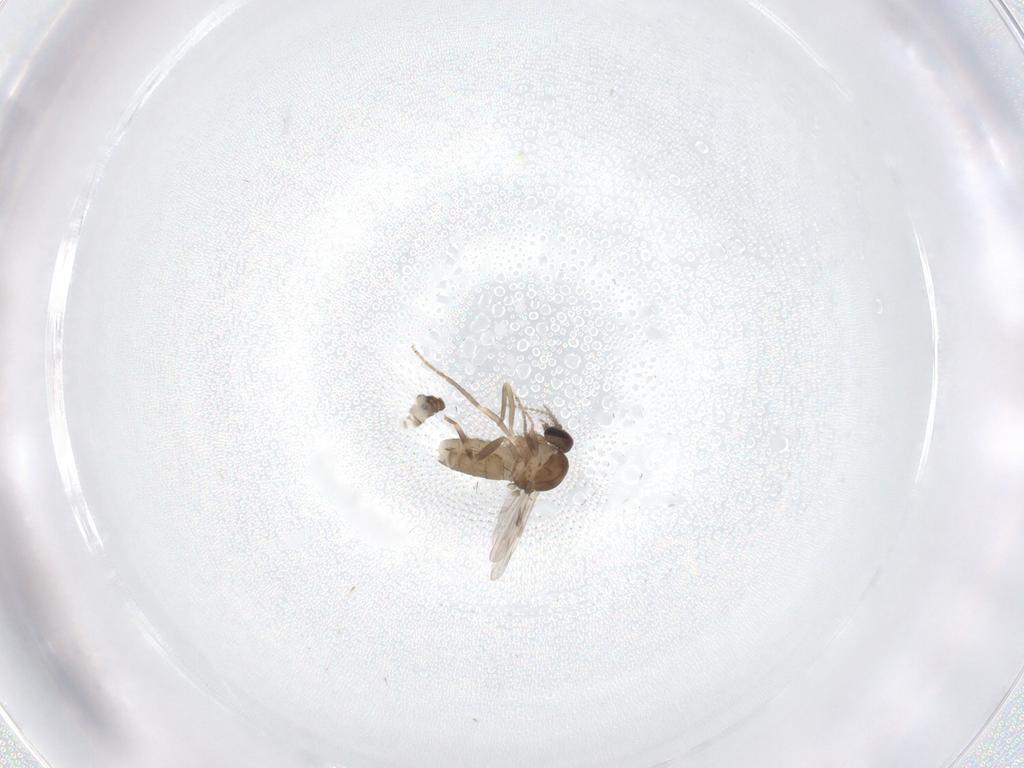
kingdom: Animalia
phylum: Arthropoda
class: Insecta
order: Diptera
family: Ceratopogonidae
